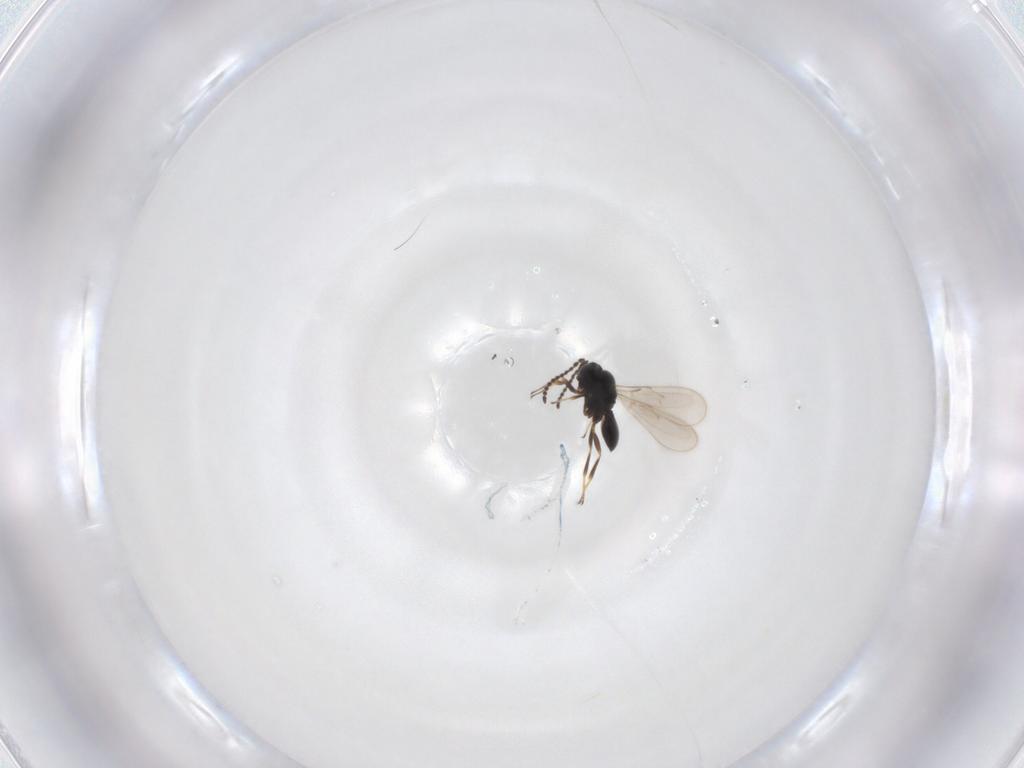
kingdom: Animalia
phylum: Arthropoda
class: Insecta
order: Hymenoptera
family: Scelionidae
